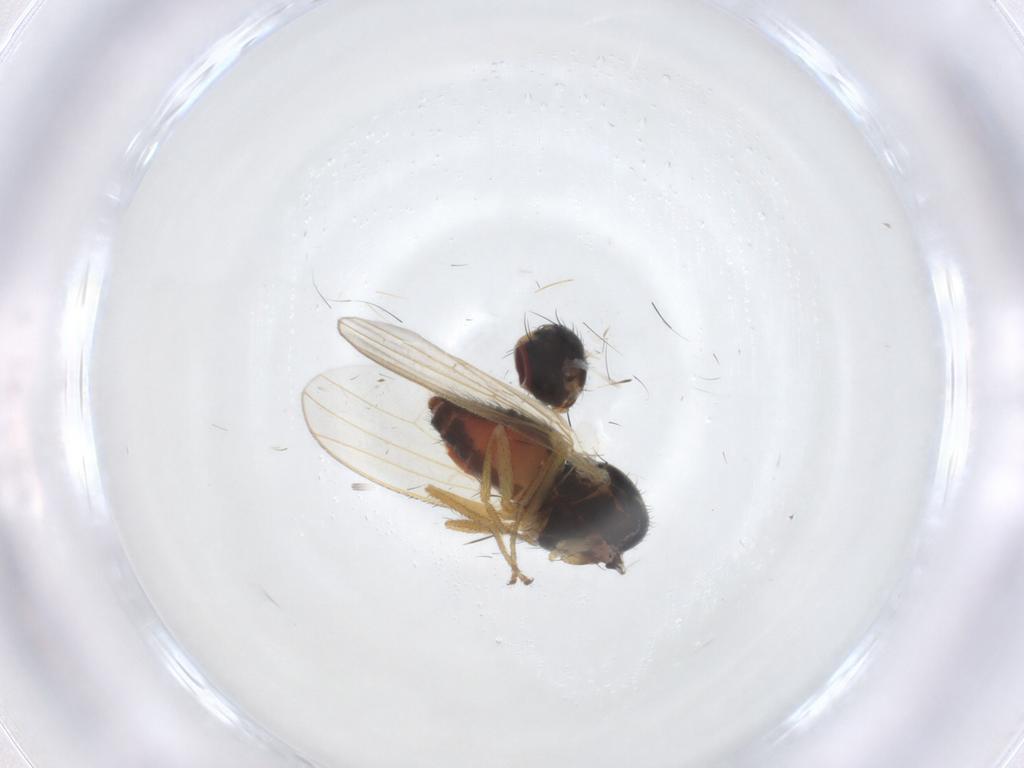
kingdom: Animalia
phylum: Arthropoda
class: Insecta
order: Diptera
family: Heleomyzidae
